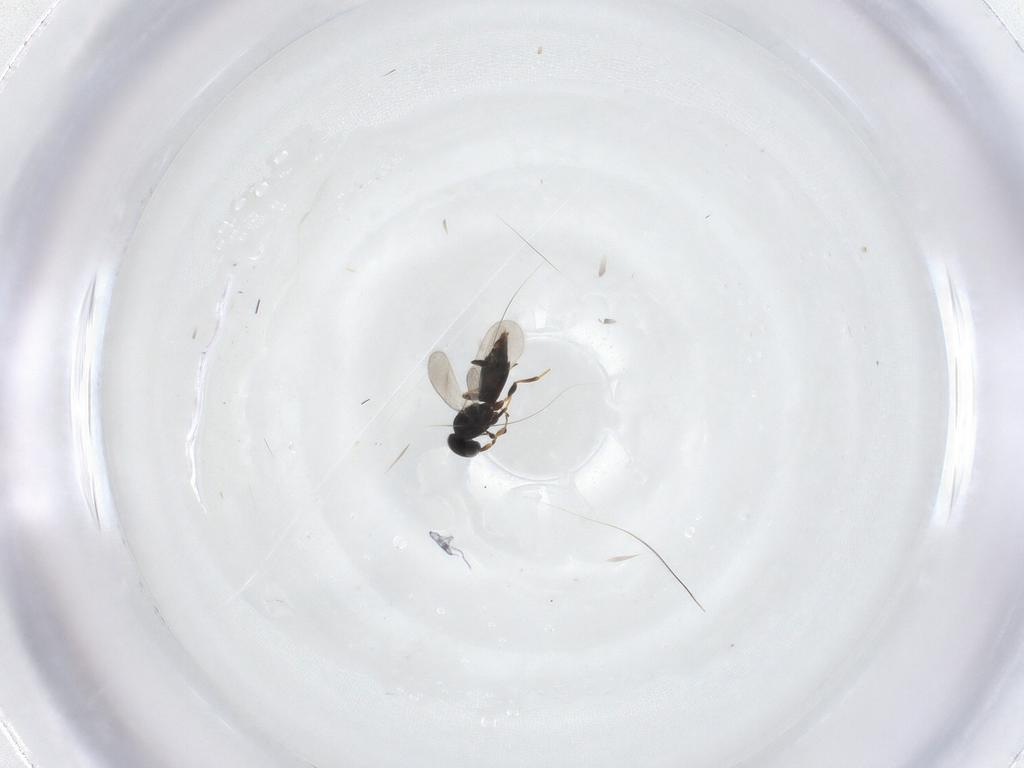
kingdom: Animalia
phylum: Arthropoda
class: Insecta
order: Hymenoptera
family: Platygastridae
